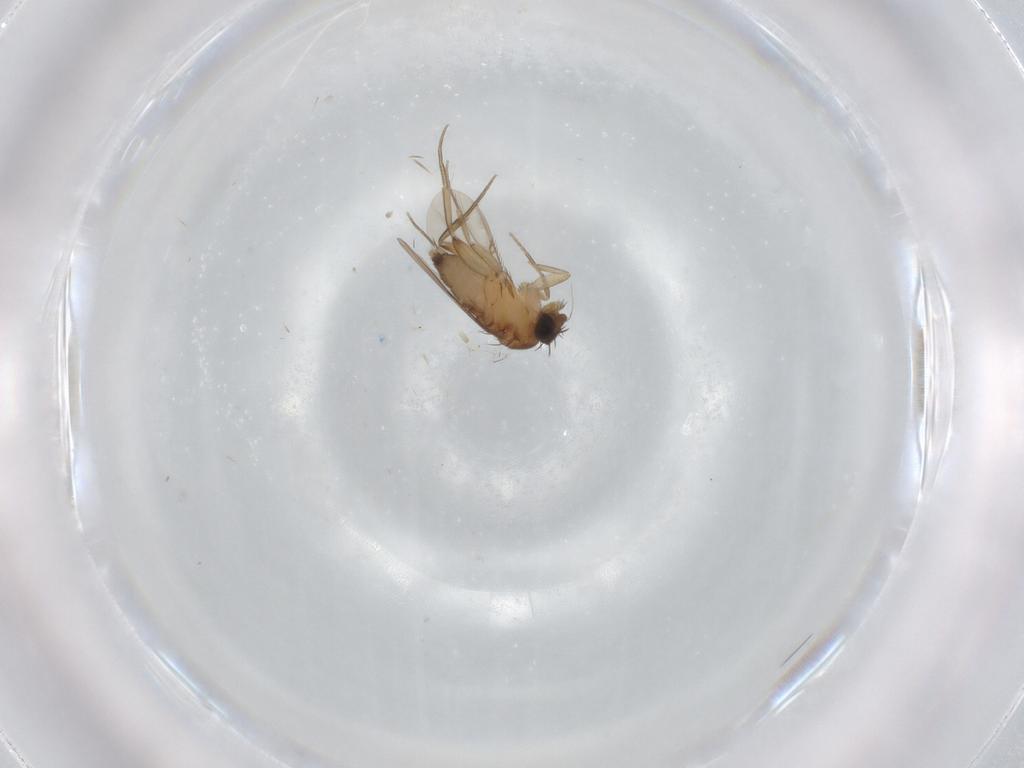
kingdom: Animalia
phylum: Arthropoda
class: Insecta
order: Diptera
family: Phoridae
